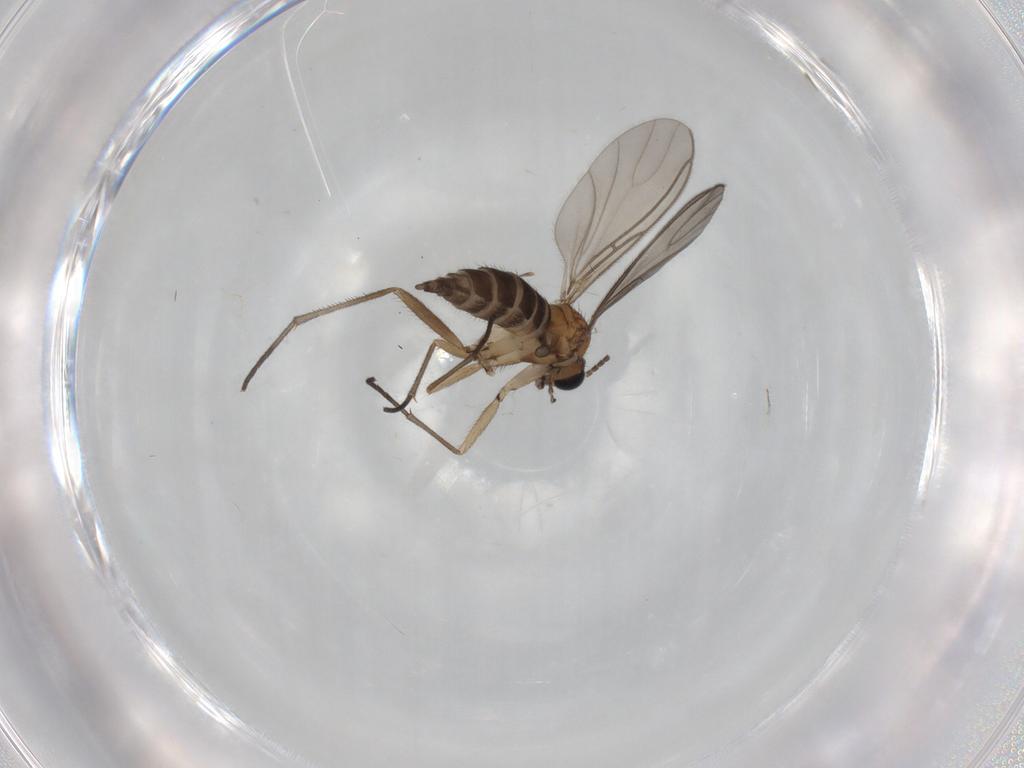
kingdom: Animalia
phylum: Arthropoda
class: Insecta
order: Diptera
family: Sciaridae
